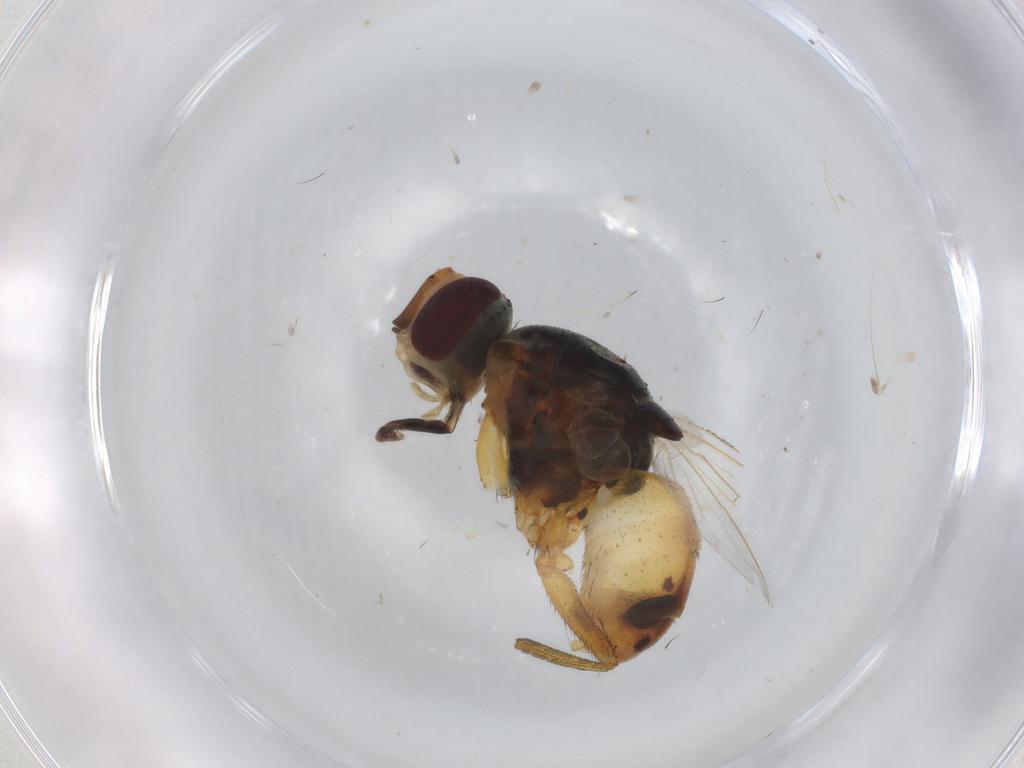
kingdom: Animalia
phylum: Arthropoda
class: Insecta
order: Diptera
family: Muscidae
